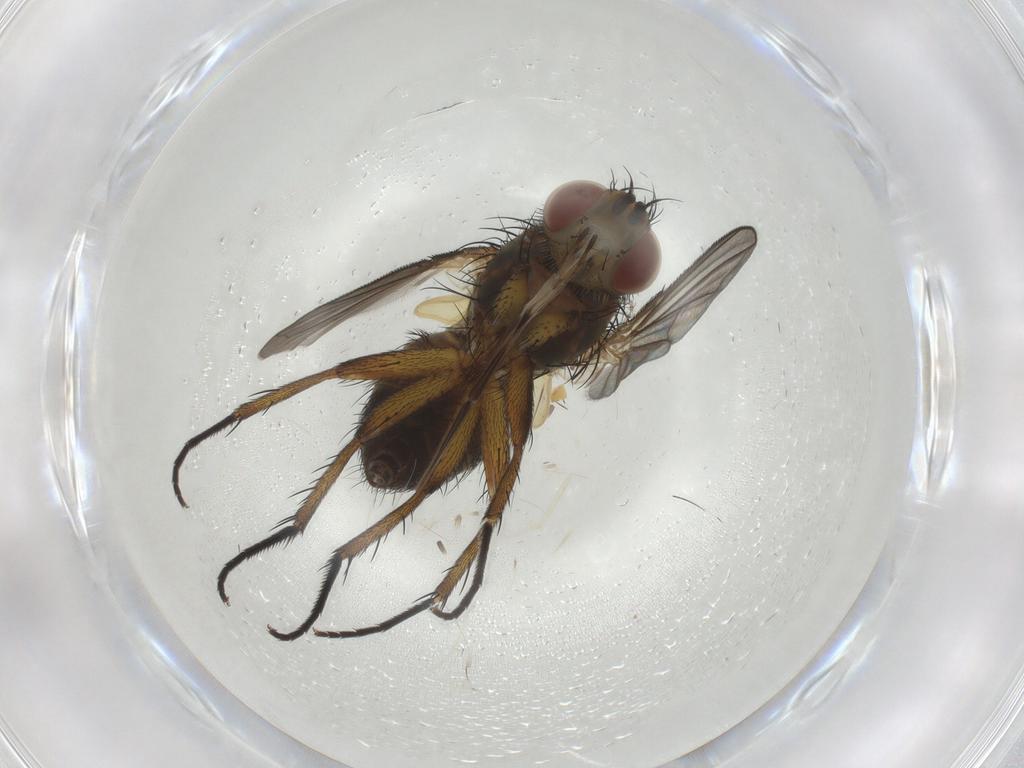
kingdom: Animalia
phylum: Arthropoda
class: Insecta
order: Diptera
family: Tachinidae
